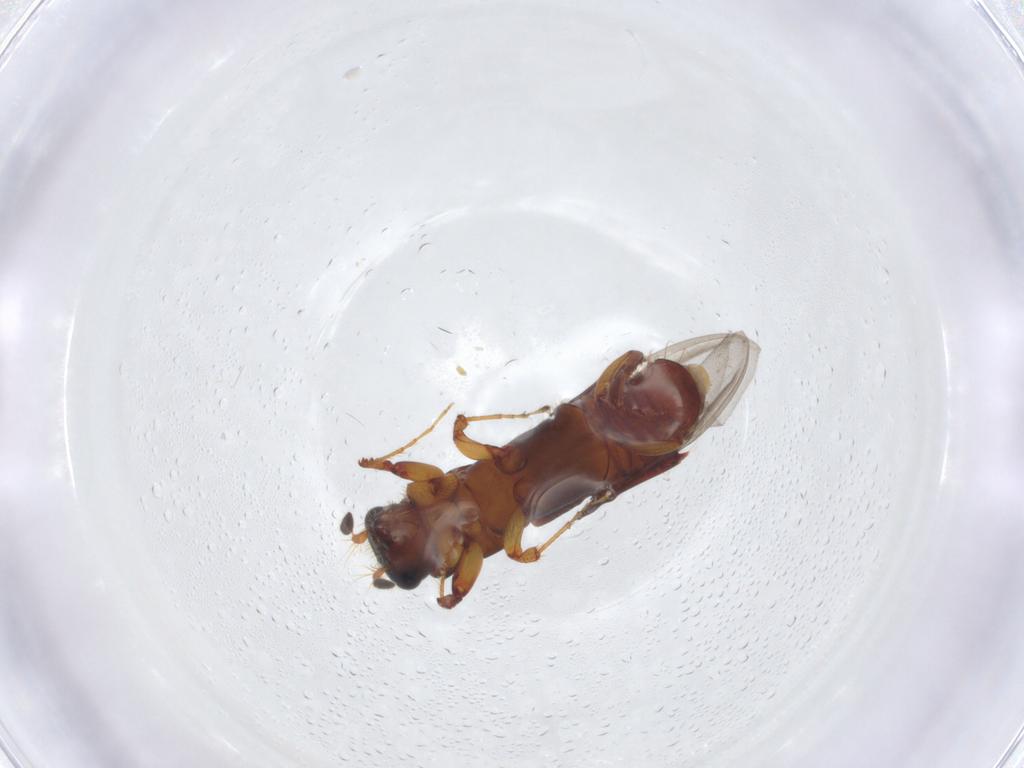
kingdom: Animalia
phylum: Arthropoda
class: Insecta
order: Coleoptera
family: Curculionidae
